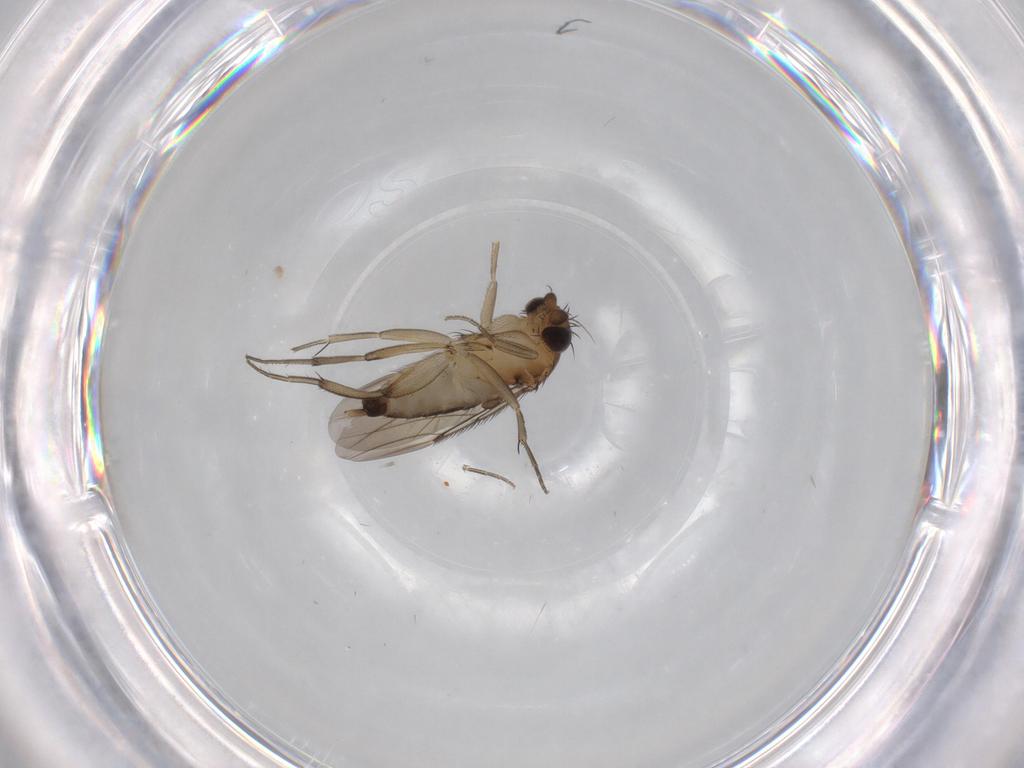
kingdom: Animalia
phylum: Arthropoda
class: Insecta
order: Diptera
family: Phoridae
